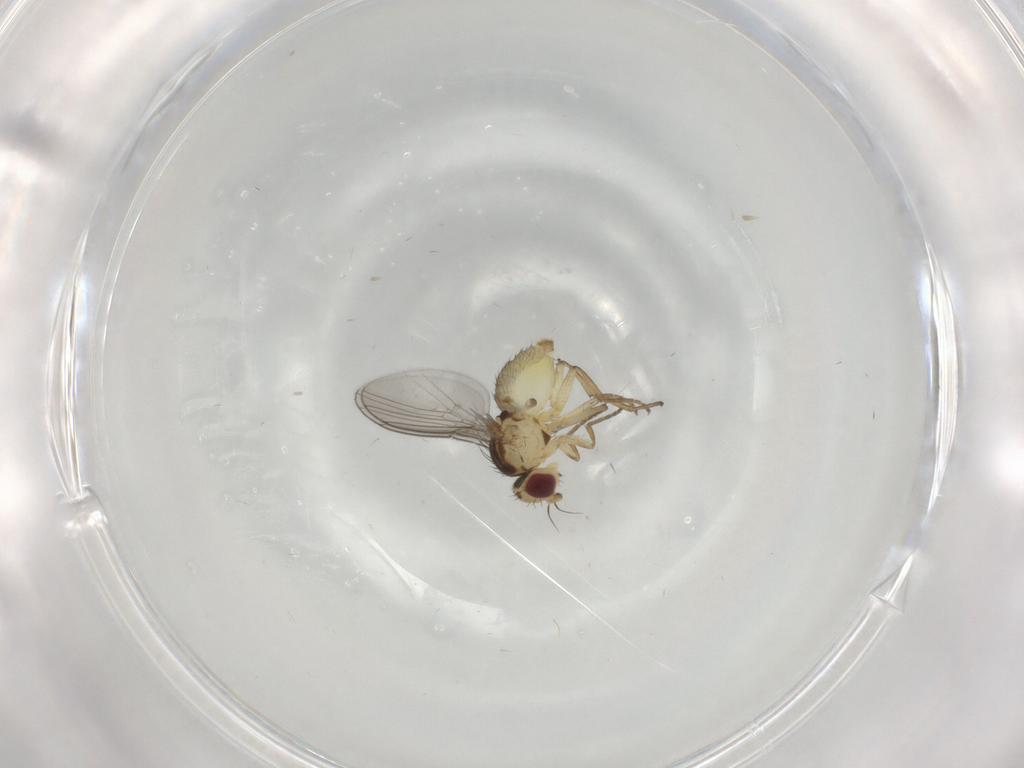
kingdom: Animalia
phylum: Arthropoda
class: Insecta
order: Diptera
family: Agromyzidae
